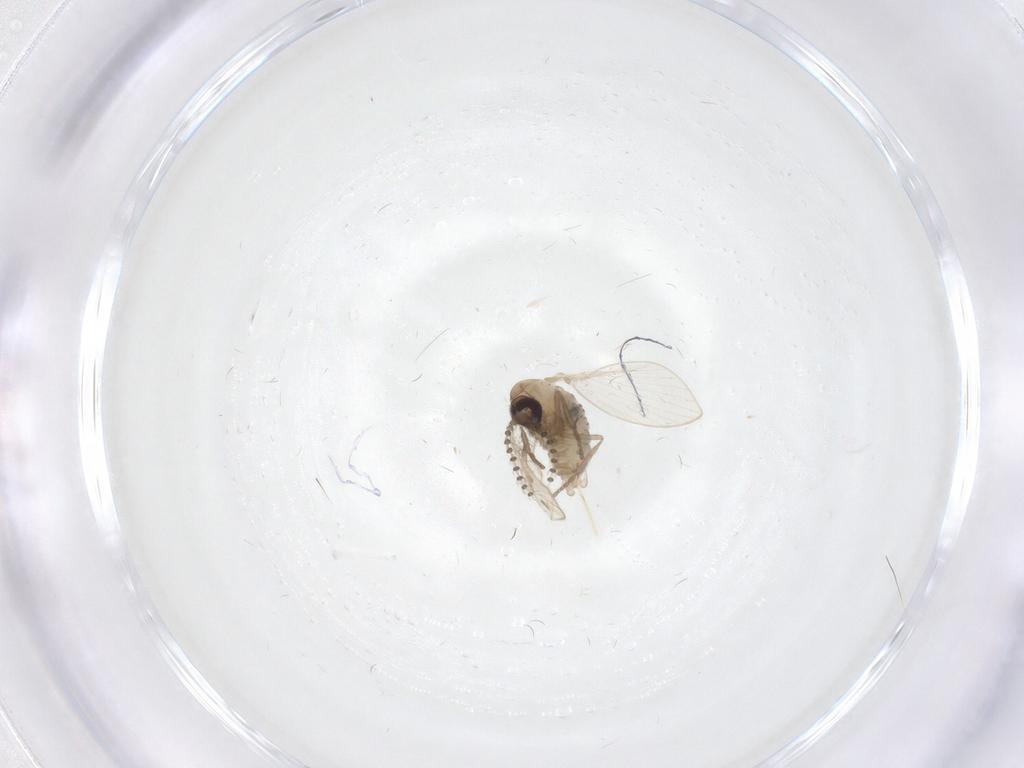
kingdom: Animalia
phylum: Arthropoda
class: Insecta
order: Diptera
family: Psychodidae
